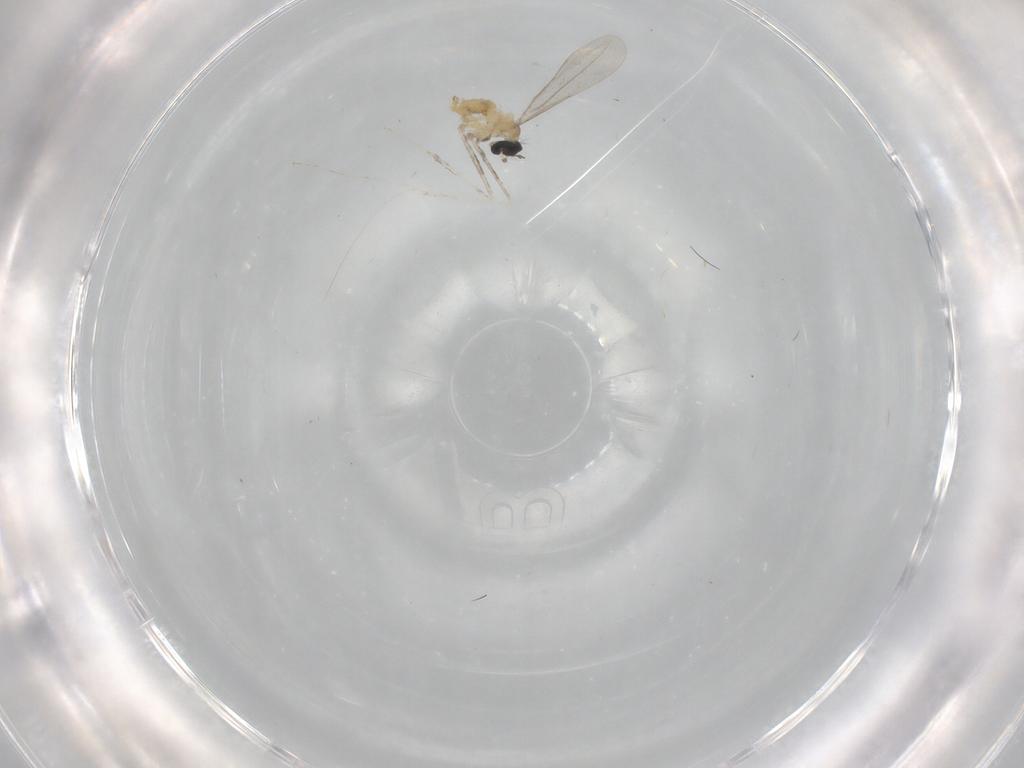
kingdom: Animalia
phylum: Arthropoda
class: Insecta
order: Diptera
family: Cecidomyiidae
